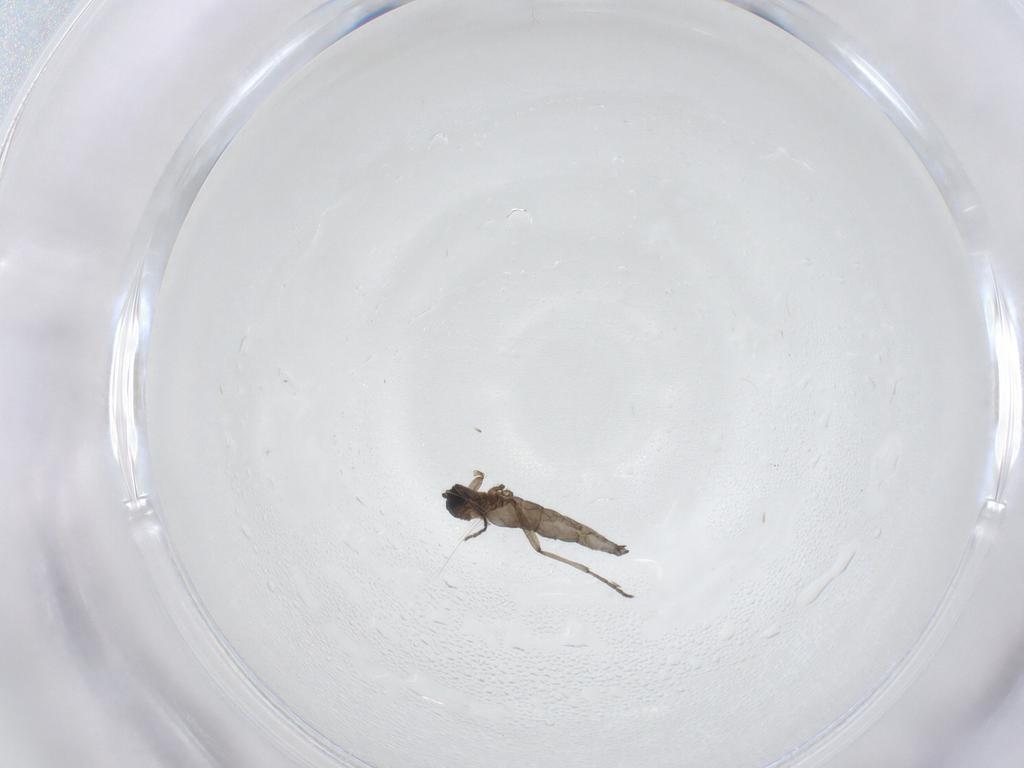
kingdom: Animalia
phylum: Arthropoda
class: Insecta
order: Diptera
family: Sciaridae
